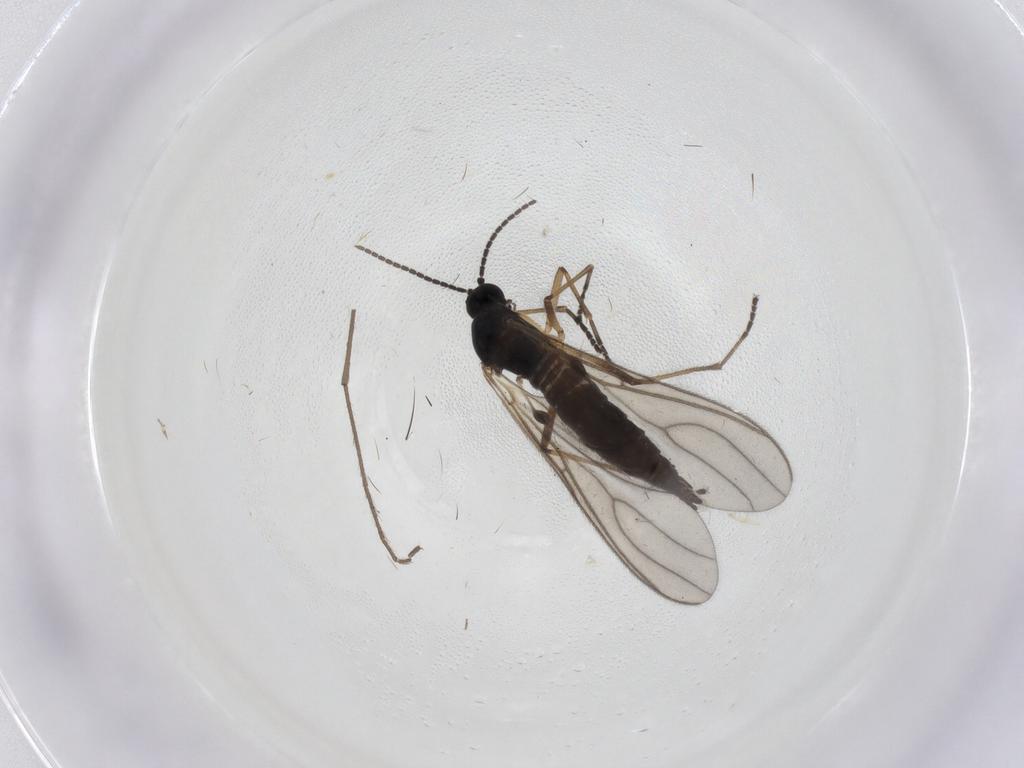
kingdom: Animalia
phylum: Arthropoda
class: Insecta
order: Diptera
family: Sciaridae
